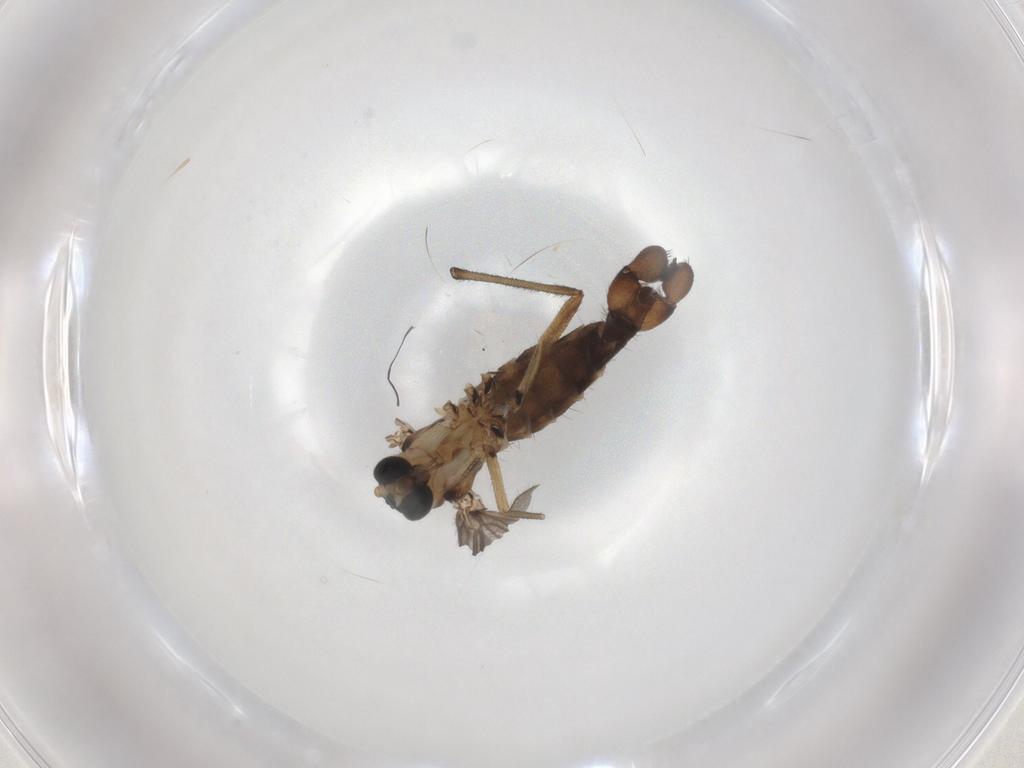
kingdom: Animalia
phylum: Arthropoda
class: Insecta
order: Diptera
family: Sciaridae
